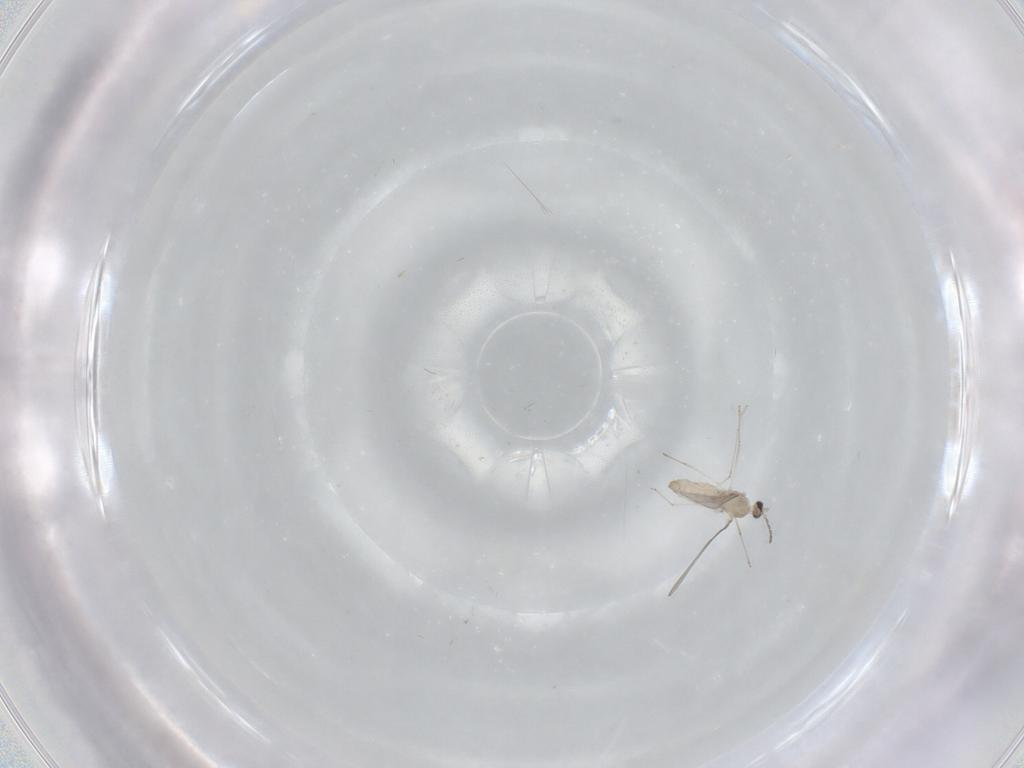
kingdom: Animalia
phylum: Arthropoda
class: Insecta
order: Diptera
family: Cecidomyiidae
